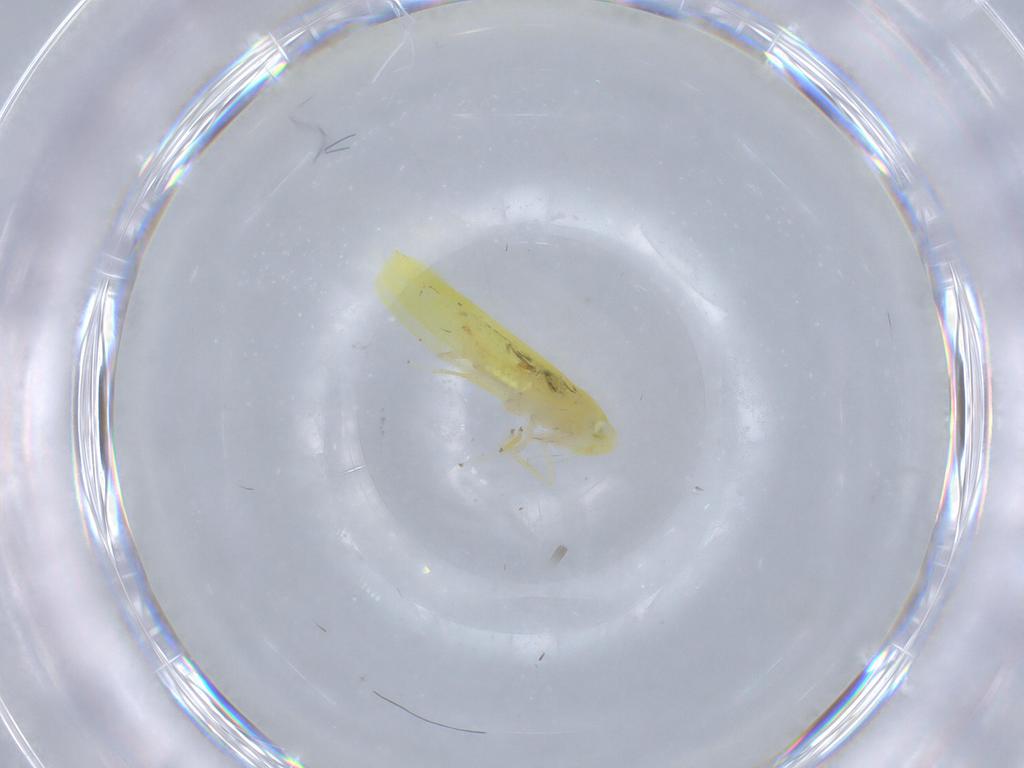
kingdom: Animalia
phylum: Arthropoda
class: Insecta
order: Hemiptera
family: Cicadellidae
